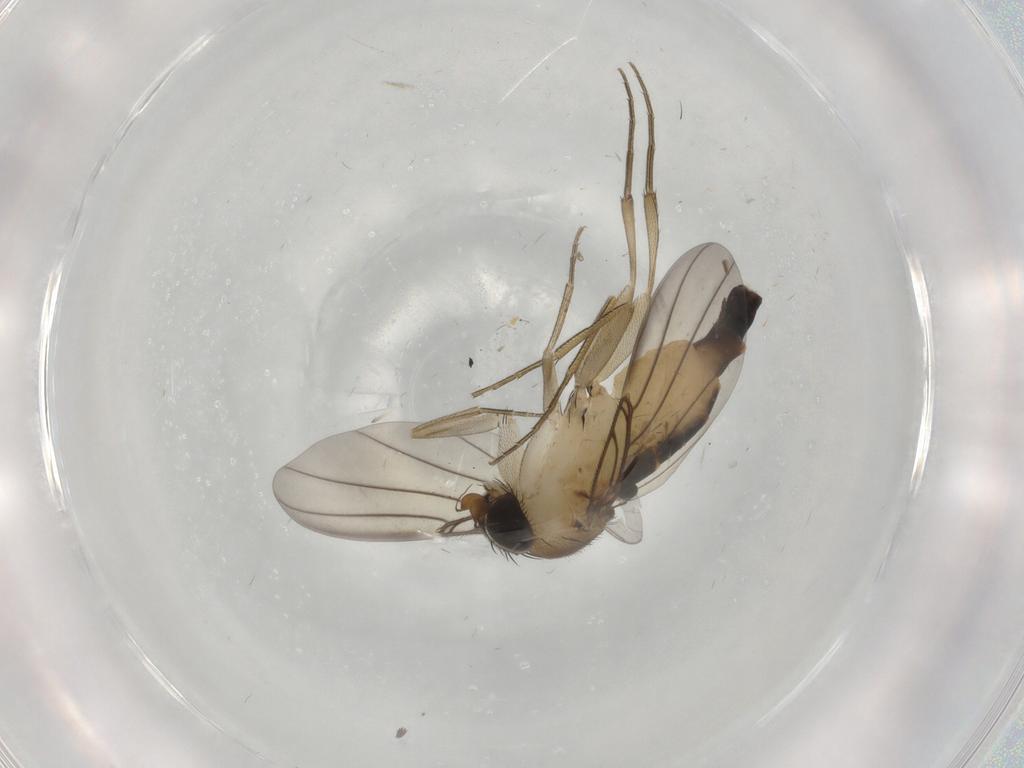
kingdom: Animalia
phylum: Arthropoda
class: Insecta
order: Diptera
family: Phoridae
